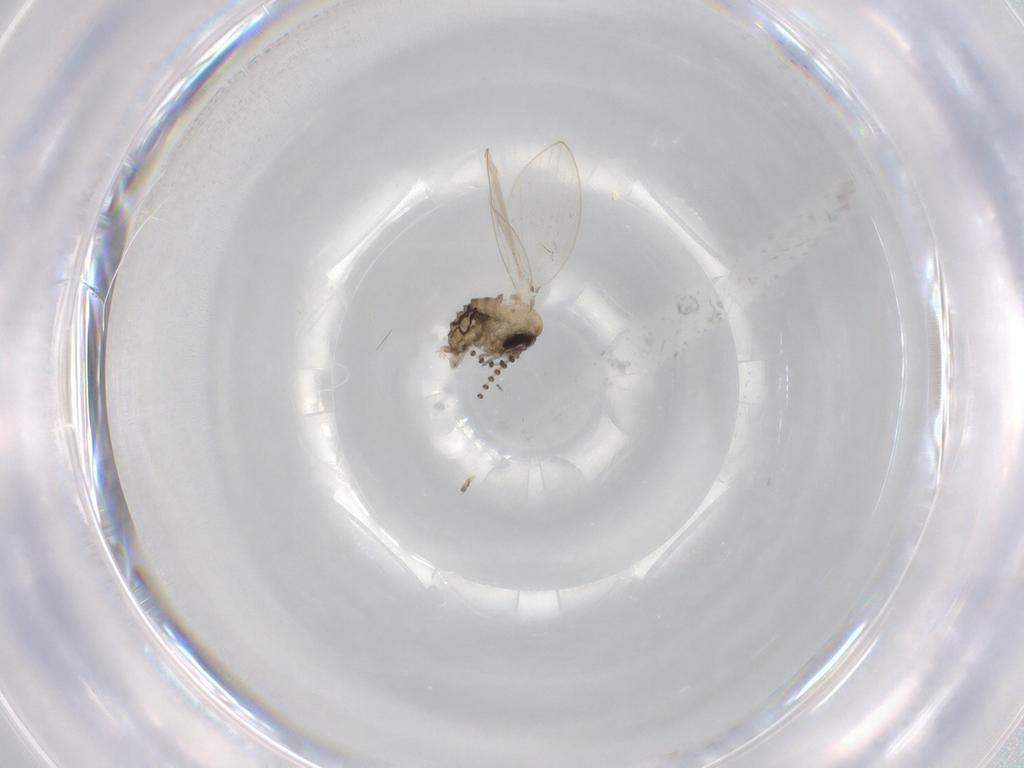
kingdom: Animalia
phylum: Arthropoda
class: Insecta
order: Diptera
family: Psychodidae
